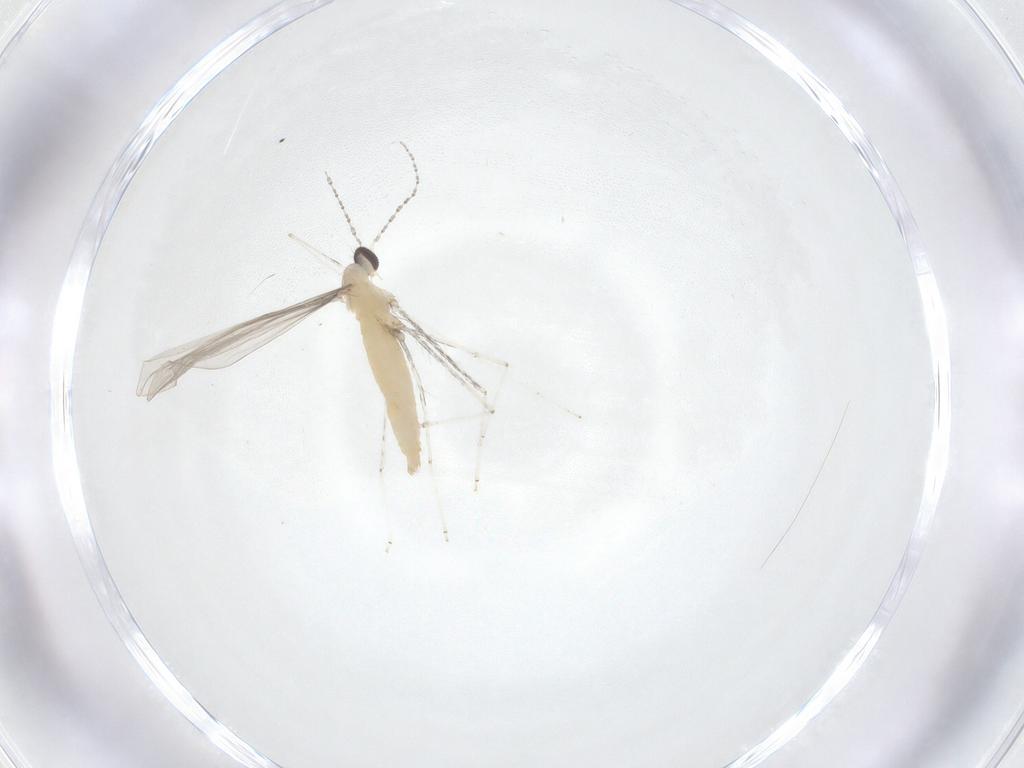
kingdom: Animalia
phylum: Arthropoda
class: Insecta
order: Diptera
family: Cecidomyiidae
